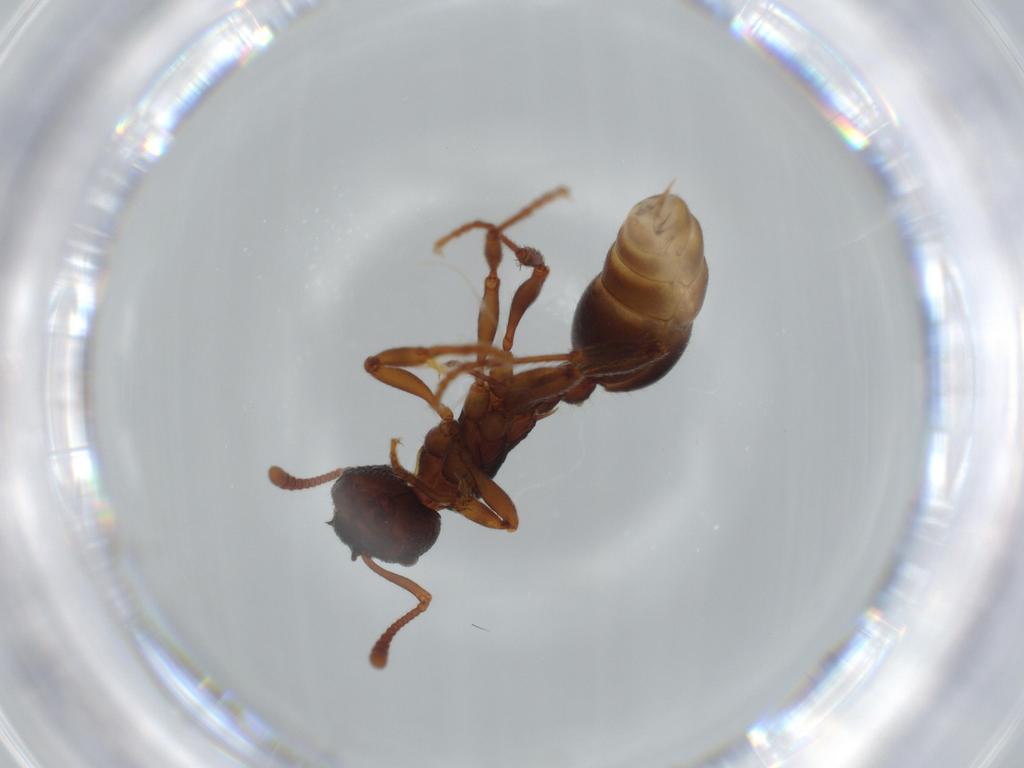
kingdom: Animalia
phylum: Arthropoda
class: Insecta
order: Hymenoptera
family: Formicidae
